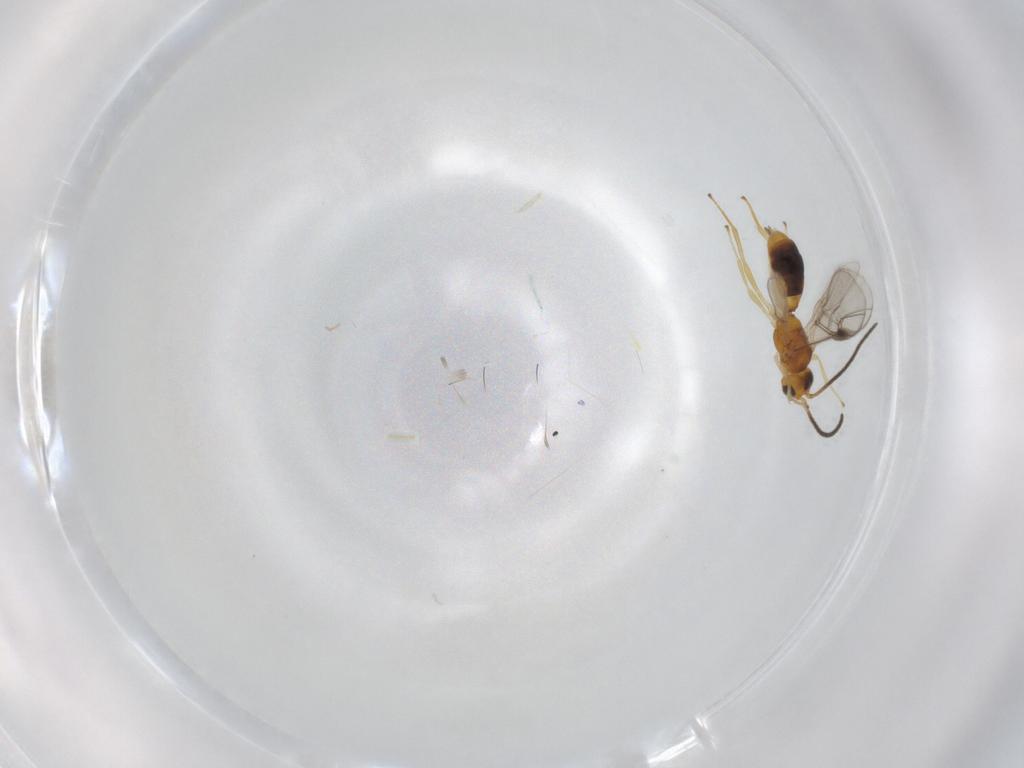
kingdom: Animalia
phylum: Arthropoda
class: Insecta
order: Hymenoptera
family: Braconidae
